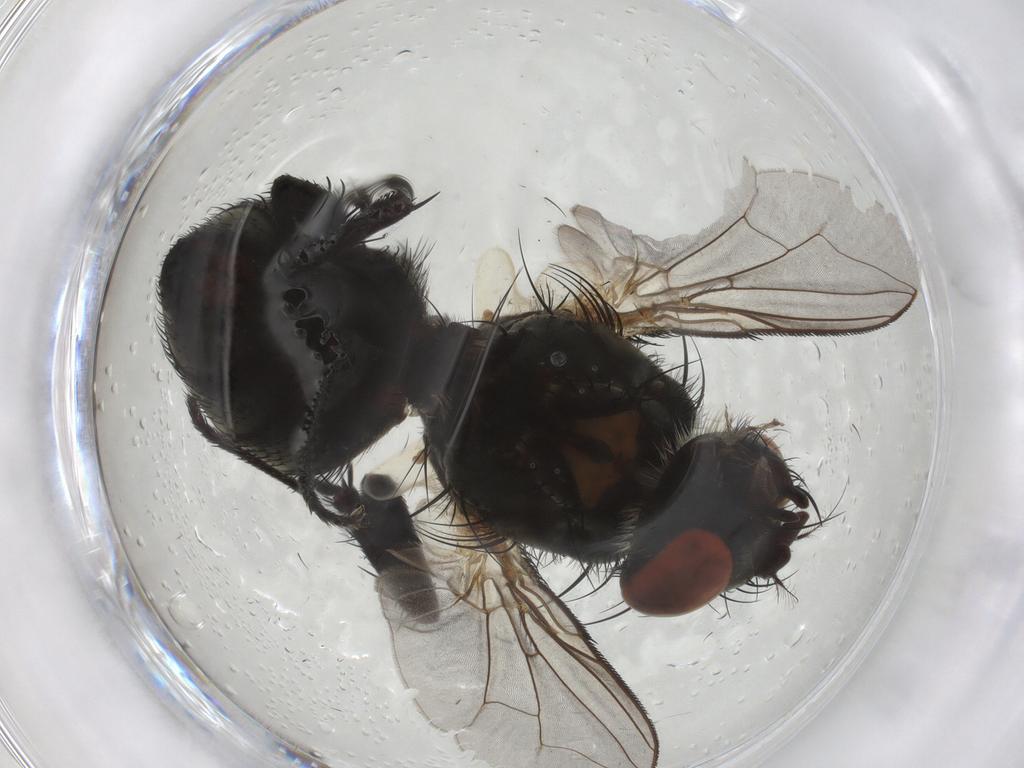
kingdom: Animalia
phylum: Arthropoda
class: Insecta
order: Diptera
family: Sarcophagidae
